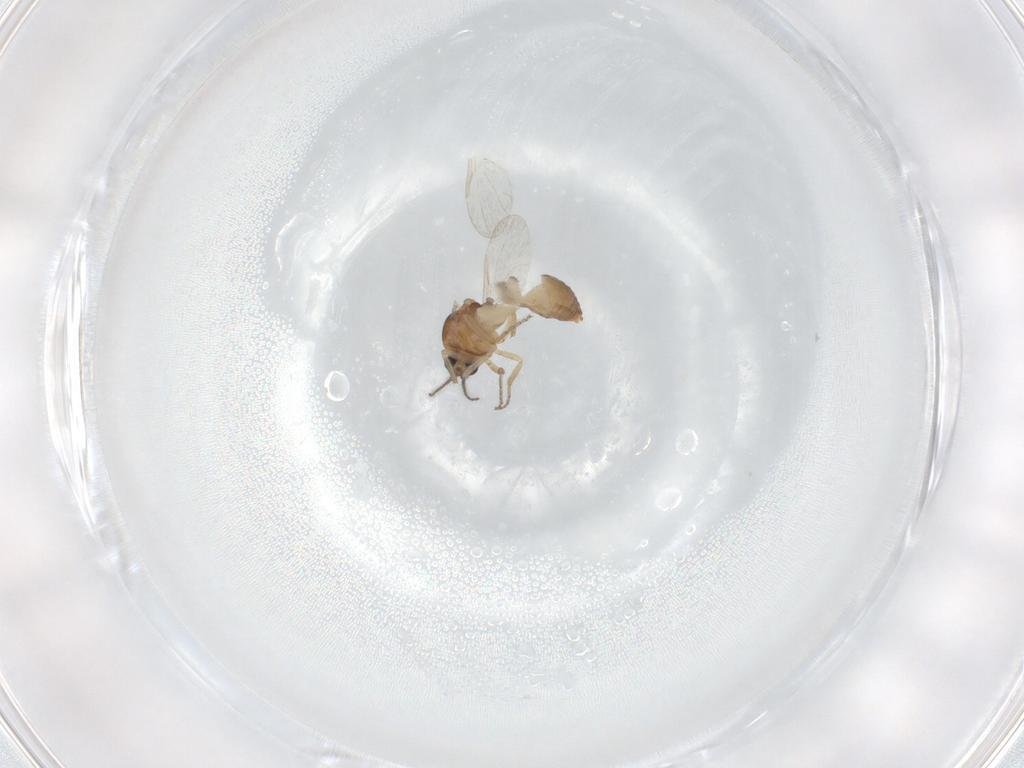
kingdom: Animalia
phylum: Arthropoda
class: Insecta
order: Diptera
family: Ceratopogonidae
